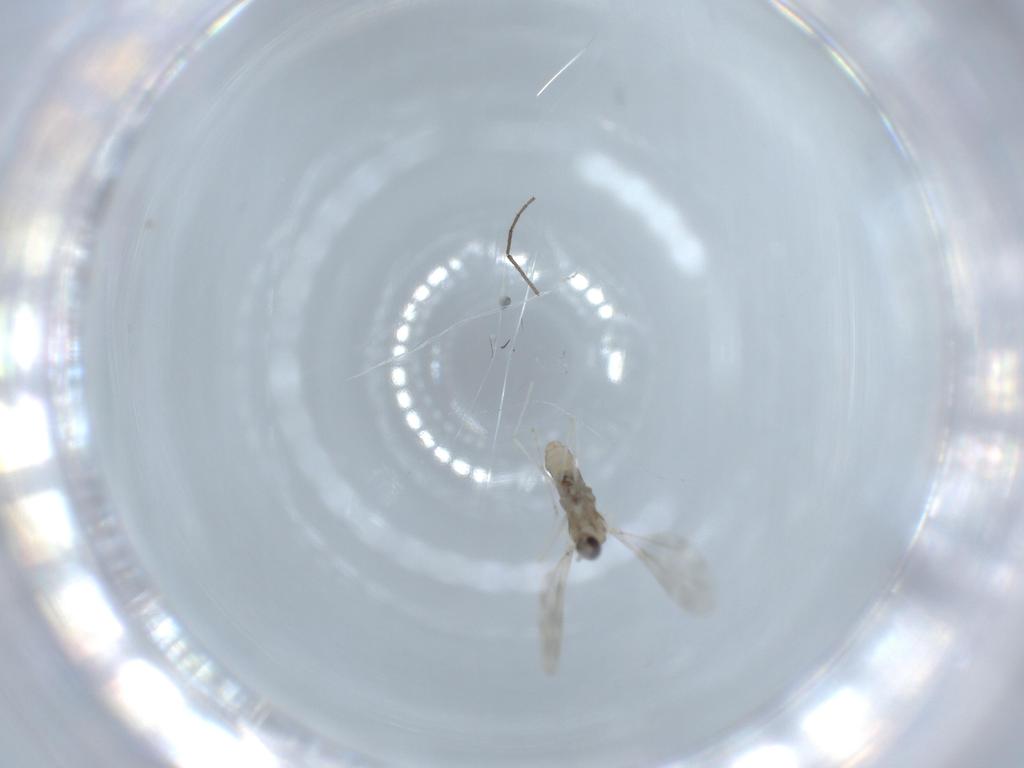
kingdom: Animalia
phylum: Arthropoda
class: Insecta
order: Diptera
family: Cecidomyiidae
